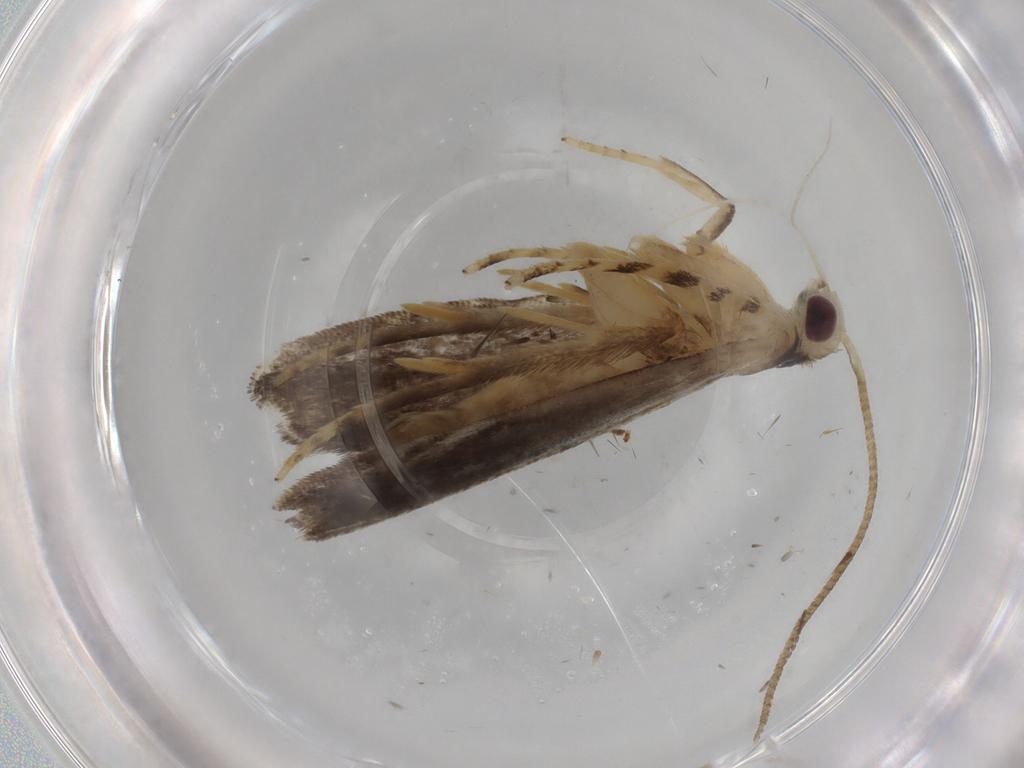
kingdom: Animalia
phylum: Arthropoda
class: Insecta
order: Lepidoptera
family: Gelechiidae
